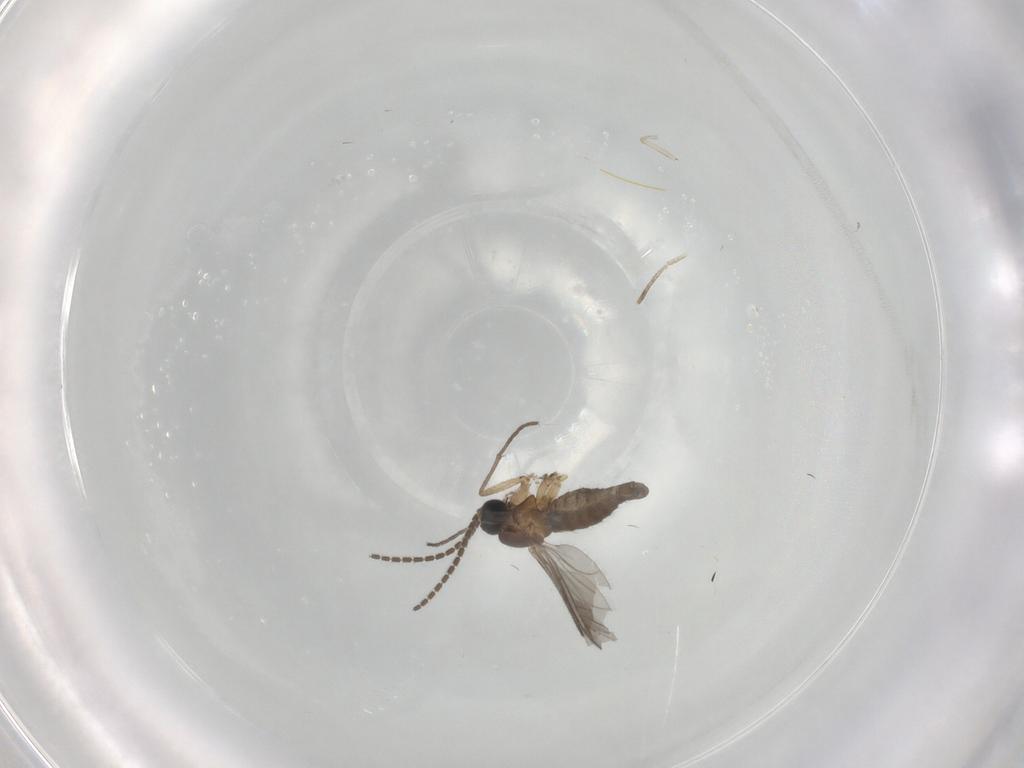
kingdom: Animalia
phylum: Arthropoda
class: Insecta
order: Diptera
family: Sciaridae
